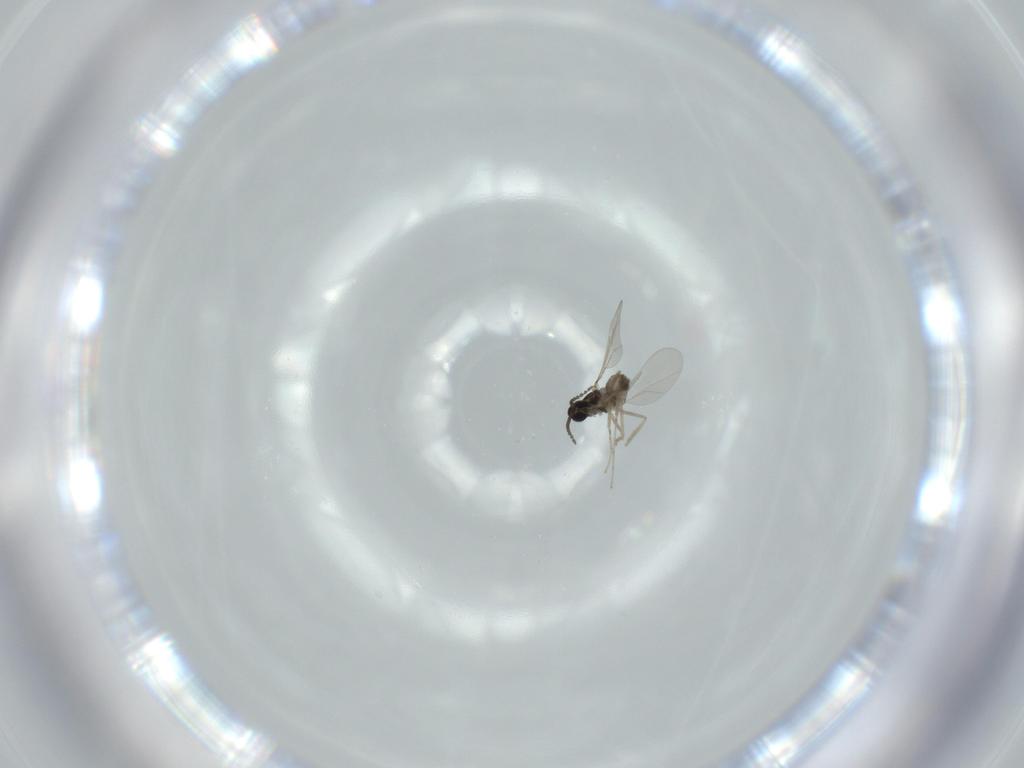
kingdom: Animalia
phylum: Arthropoda
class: Insecta
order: Diptera
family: Cecidomyiidae
